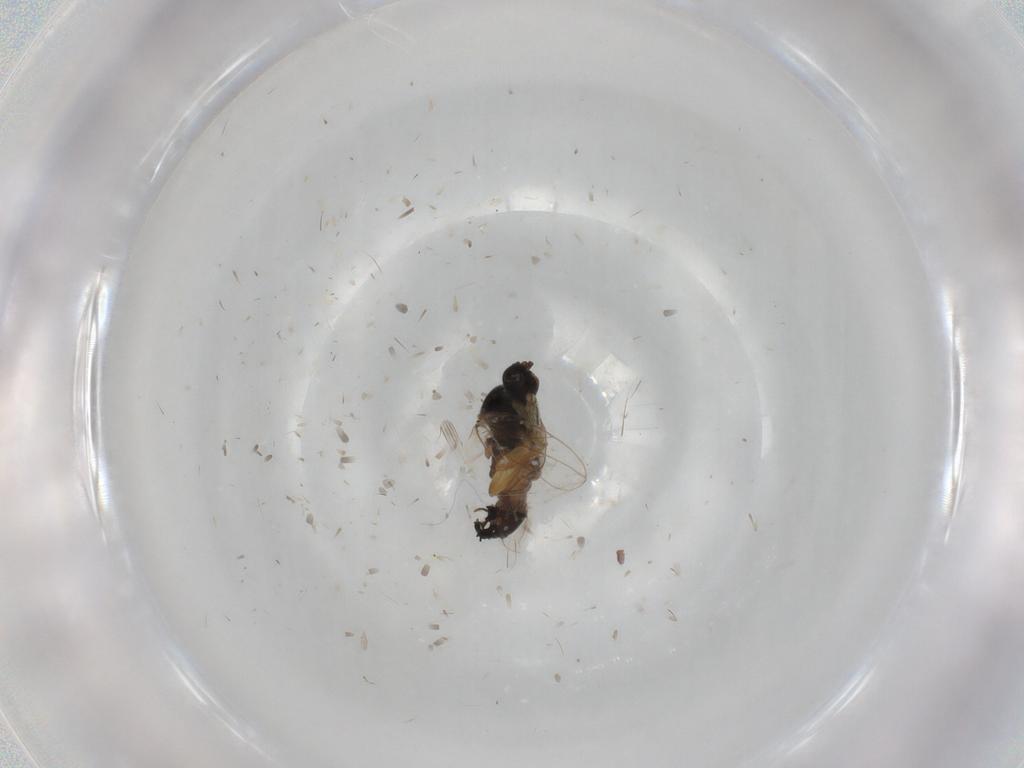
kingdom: Animalia
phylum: Arthropoda
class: Insecta
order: Diptera
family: Hybotidae
